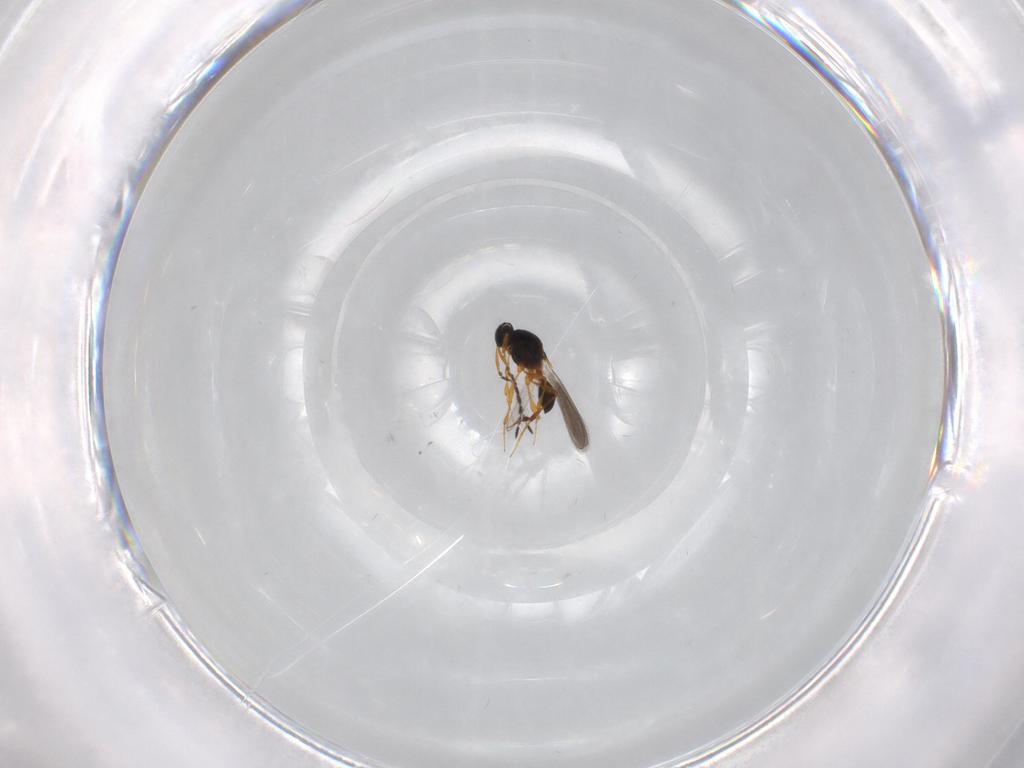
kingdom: Animalia
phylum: Arthropoda
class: Insecta
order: Hymenoptera
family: Platygastridae
